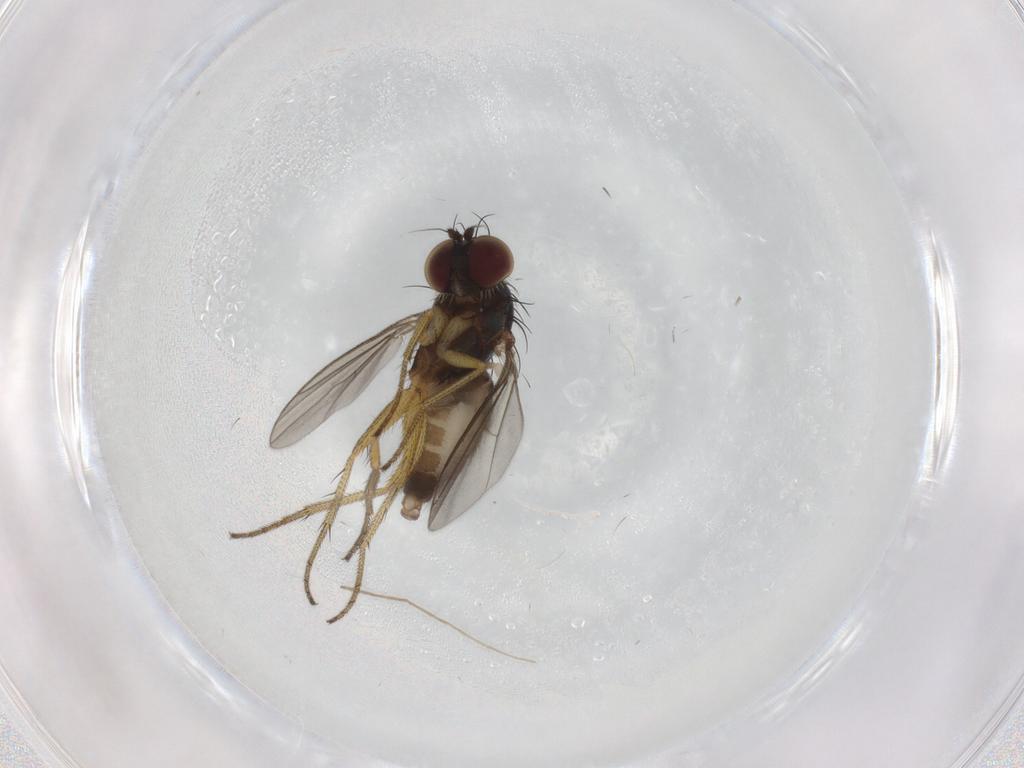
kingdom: Animalia
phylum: Arthropoda
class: Insecta
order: Diptera
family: Dolichopodidae
